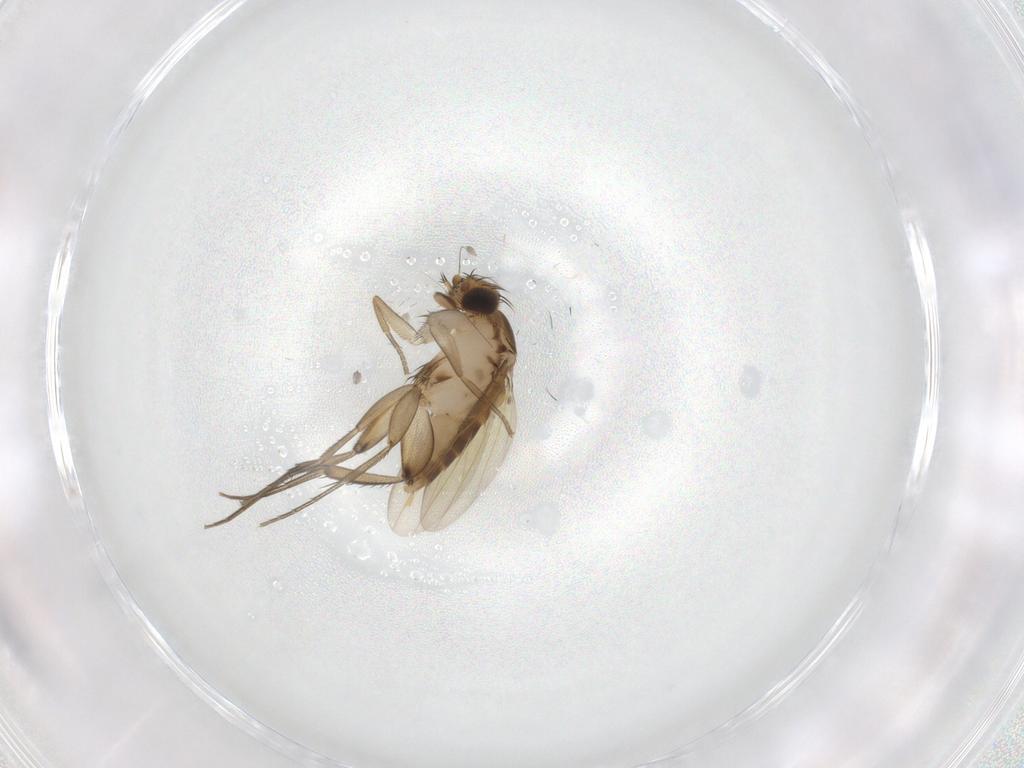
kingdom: Animalia
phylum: Arthropoda
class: Insecta
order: Diptera
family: Phoridae
